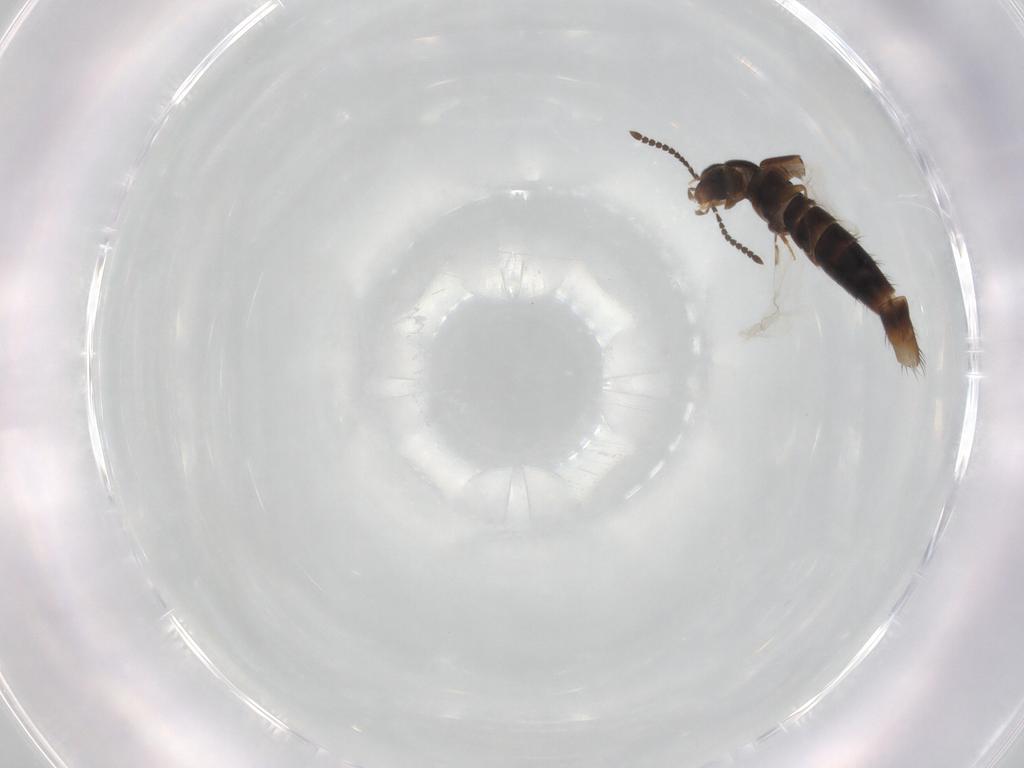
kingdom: Animalia
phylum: Arthropoda
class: Insecta
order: Coleoptera
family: Staphylinidae
